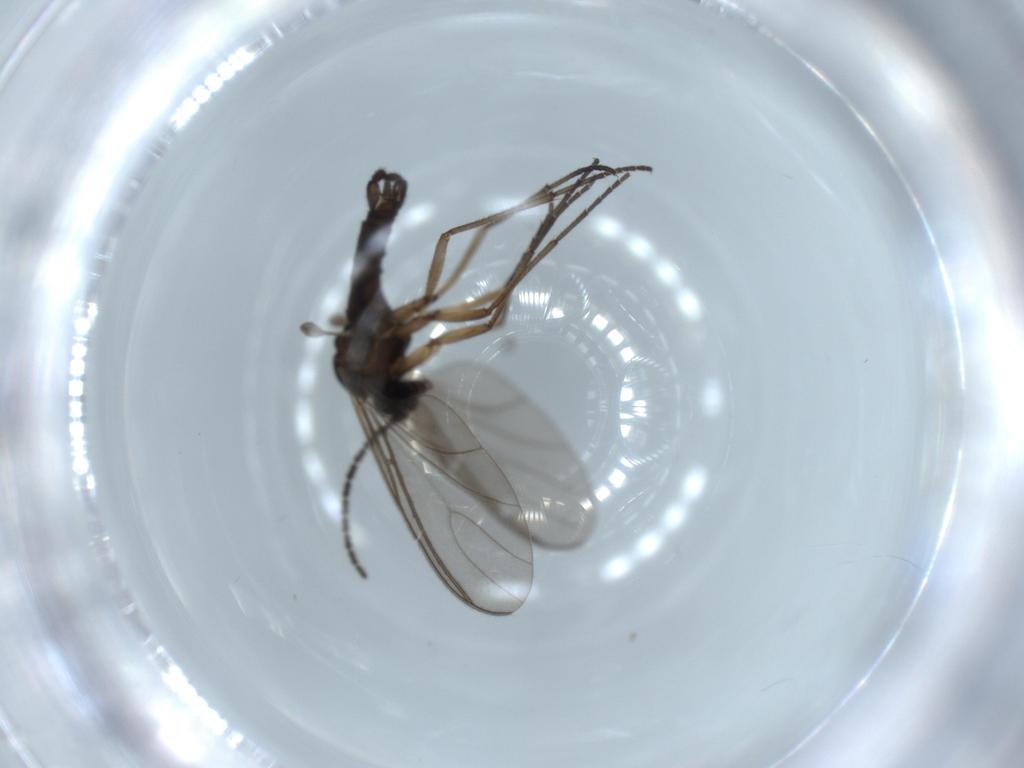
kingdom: Animalia
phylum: Arthropoda
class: Insecta
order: Diptera
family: Sciaridae
